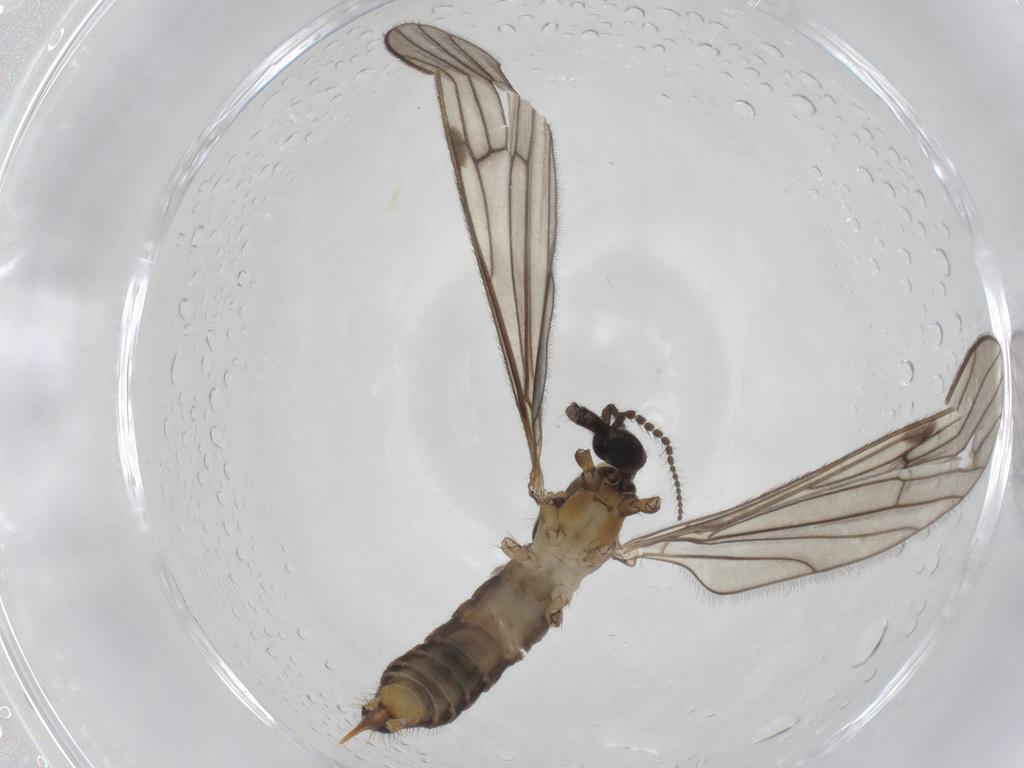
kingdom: Animalia
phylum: Arthropoda
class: Insecta
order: Diptera
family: Limoniidae
